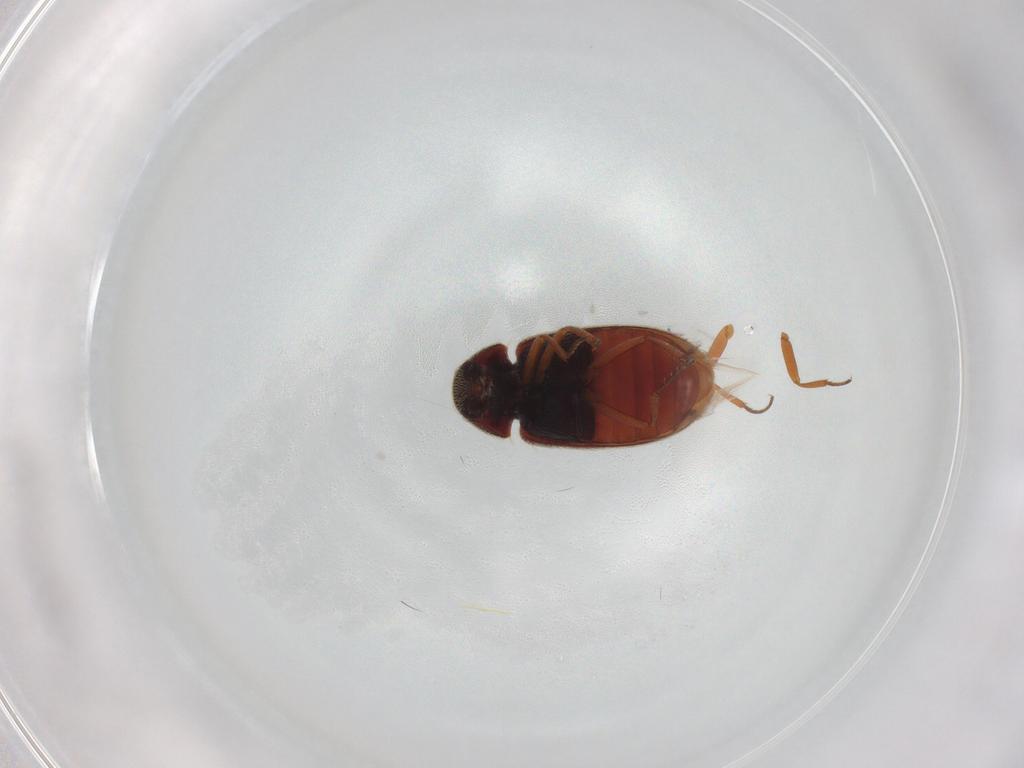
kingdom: Animalia
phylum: Arthropoda
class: Insecta
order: Coleoptera
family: Rhadalidae
